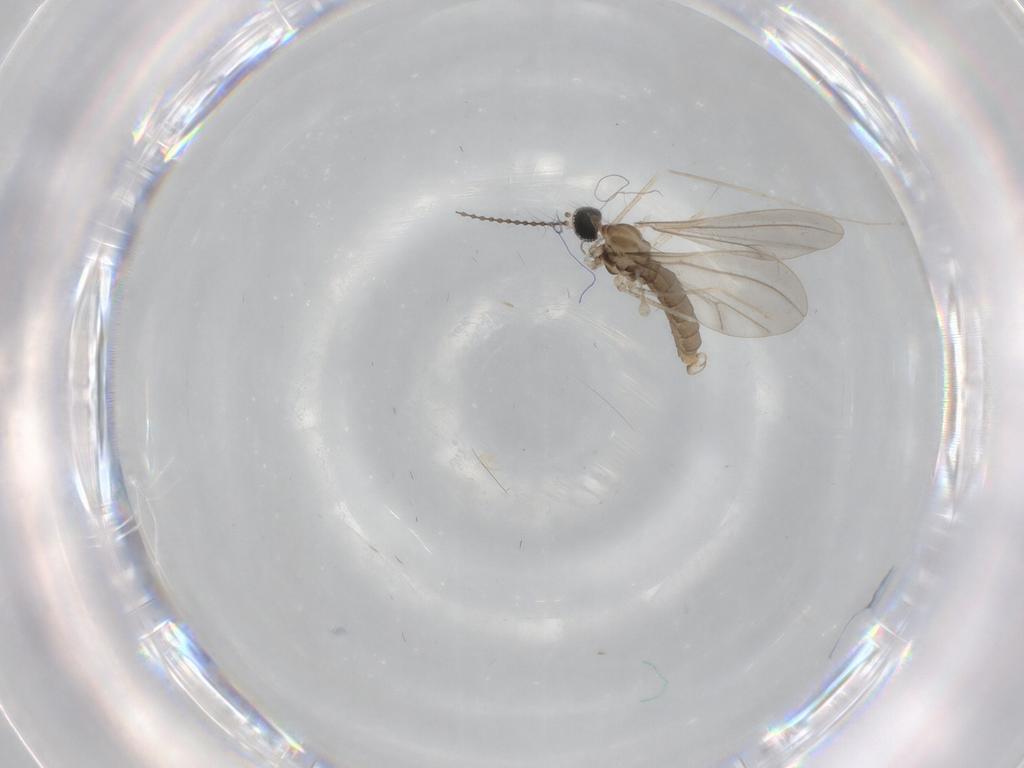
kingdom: Animalia
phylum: Arthropoda
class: Insecta
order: Diptera
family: Cecidomyiidae
